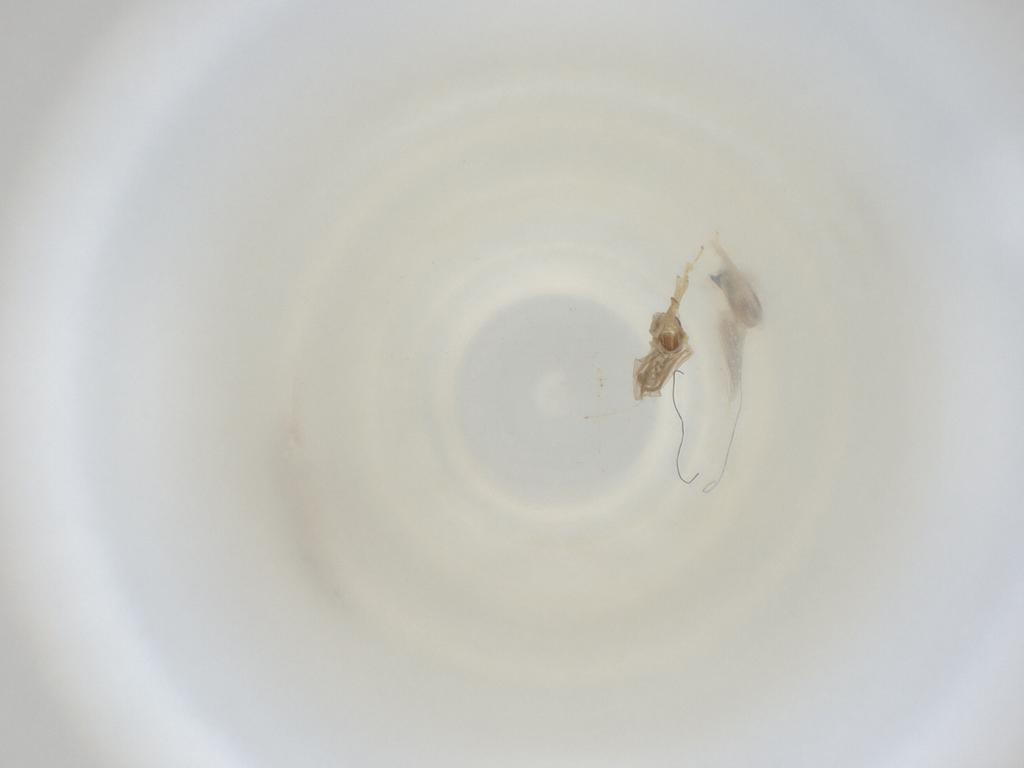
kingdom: Animalia
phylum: Arthropoda
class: Insecta
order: Diptera
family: Cecidomyiidae
